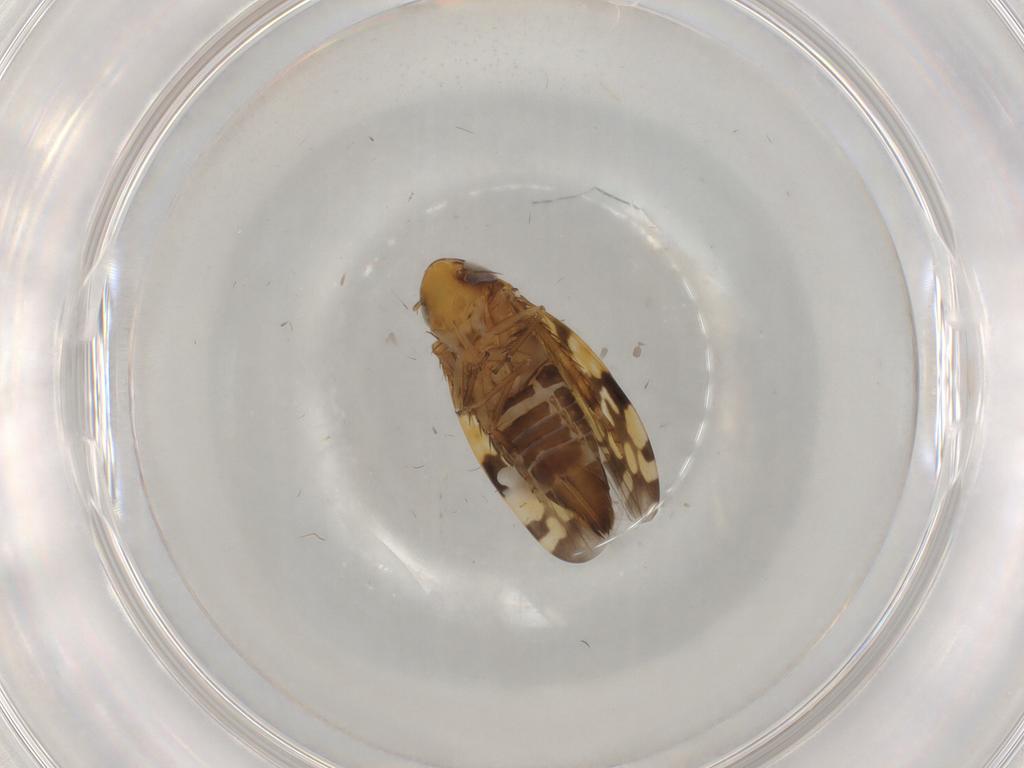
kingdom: Animalia
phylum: Arthropoda
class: Insecta
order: Hemiptera
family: Cicadellidae
